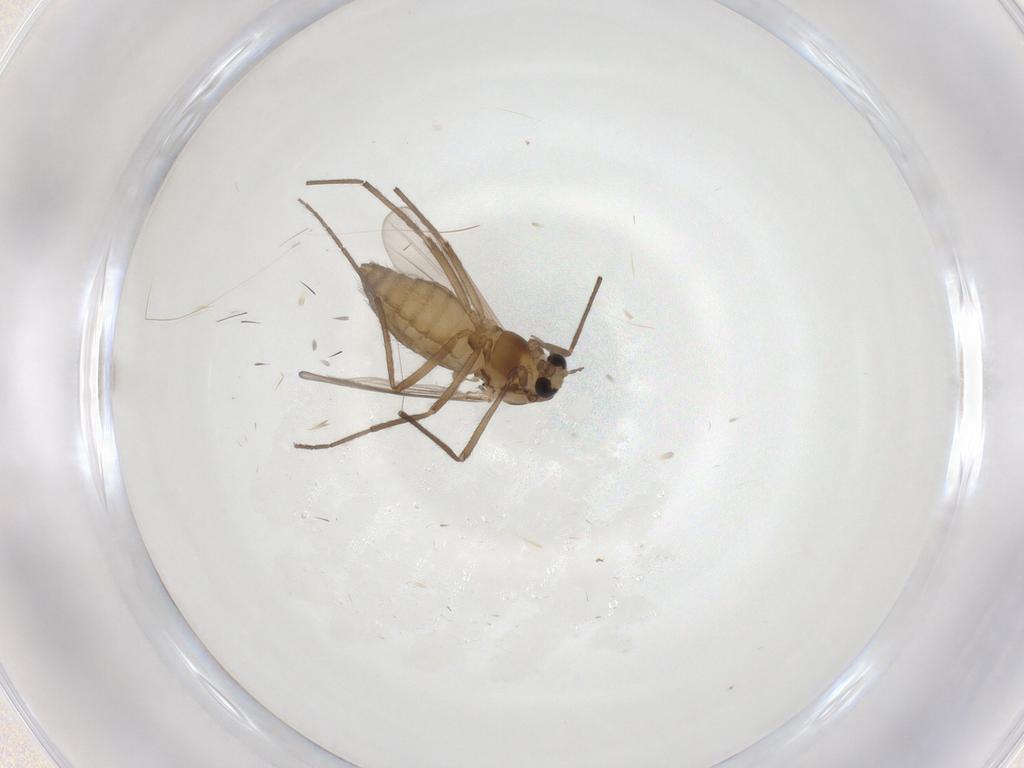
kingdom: Animalia
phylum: Arthropoda
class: Insecta
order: Diptera
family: Chironomidae
